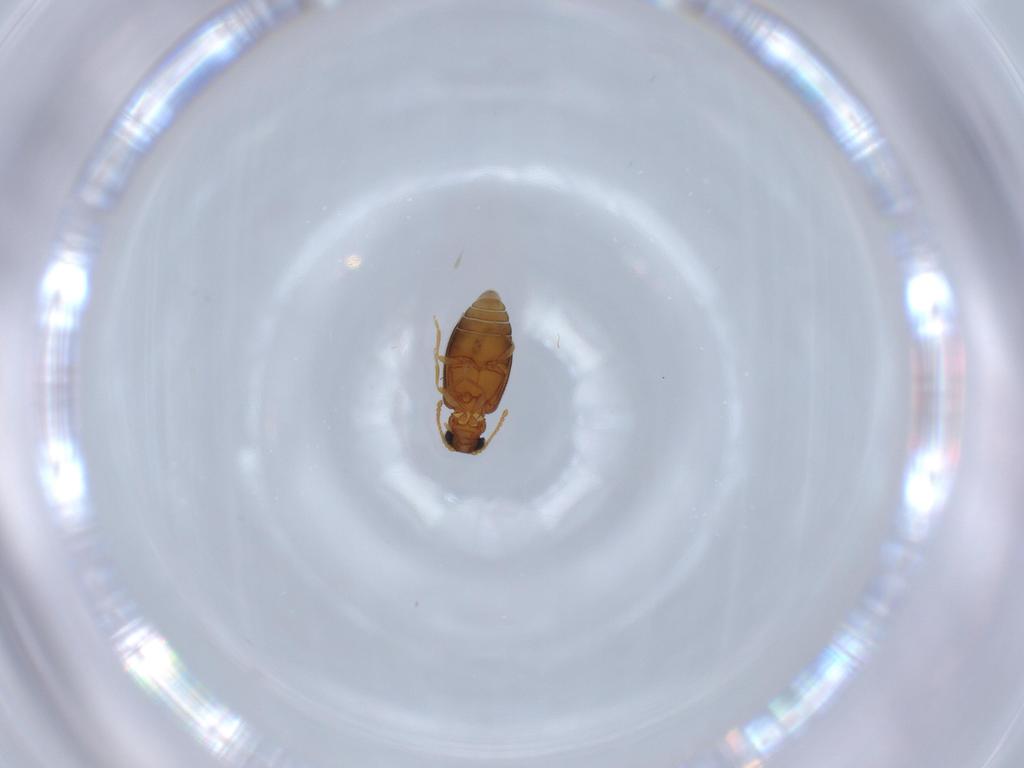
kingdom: Animalia
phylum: Arthropoda
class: Insecta
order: Coleoptera
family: Aderidae
